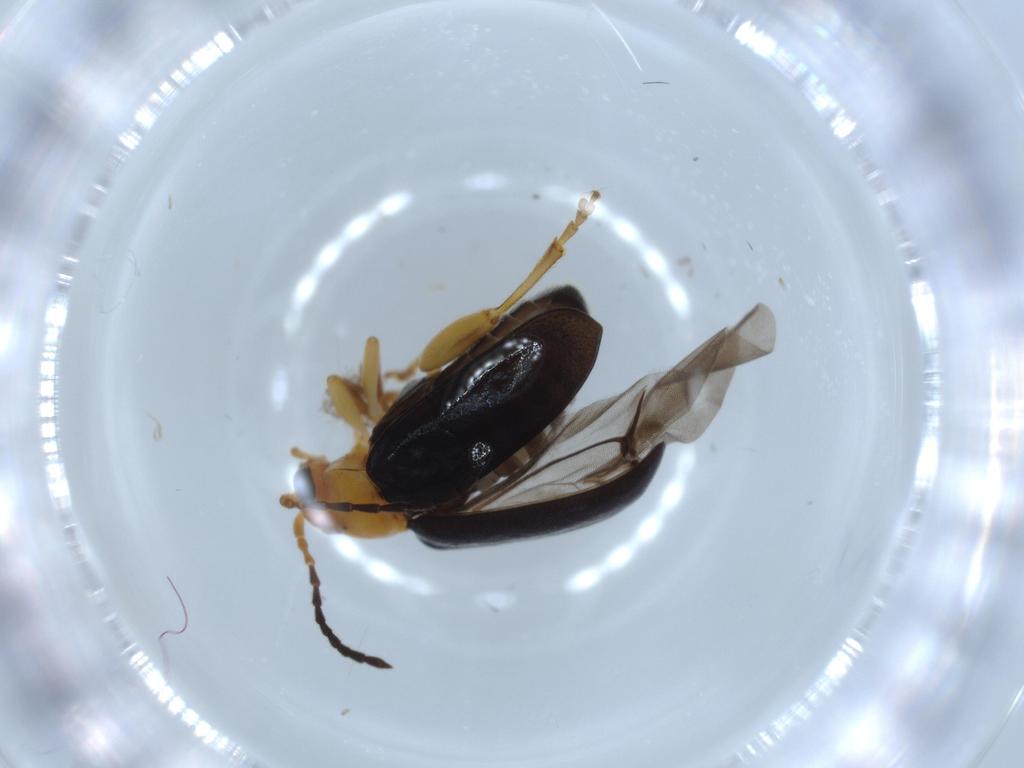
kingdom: Animalia
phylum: Arthropoda
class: Insecta
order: Coleoptera
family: Chrysomelidae
